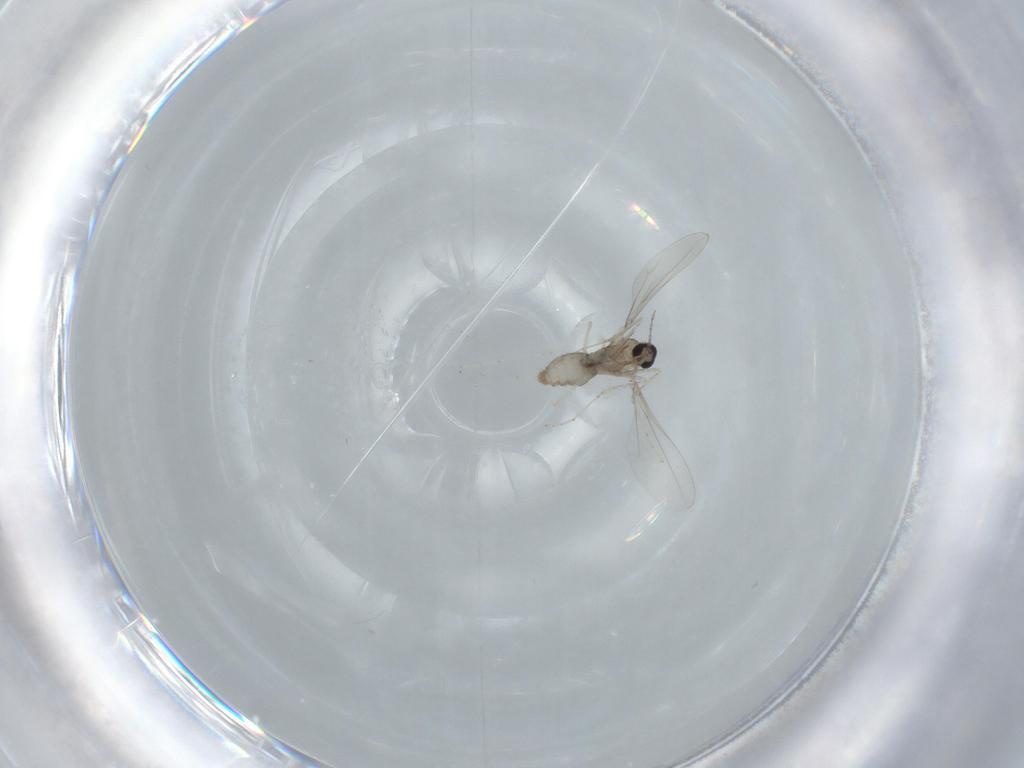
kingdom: Animalia
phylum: Arthropoda
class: Insecta
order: Diptera
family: Cecidomyiidae
